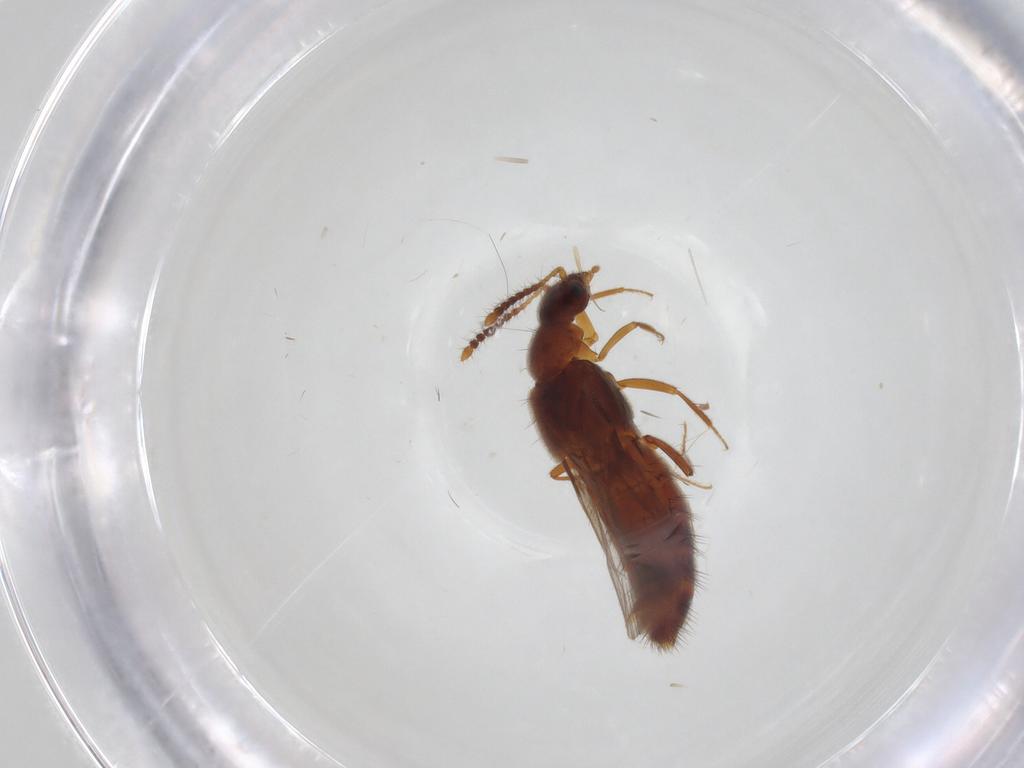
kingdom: Animalia
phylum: Arthropoda
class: Insecta
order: Coleoptera
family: Staphylinidae
